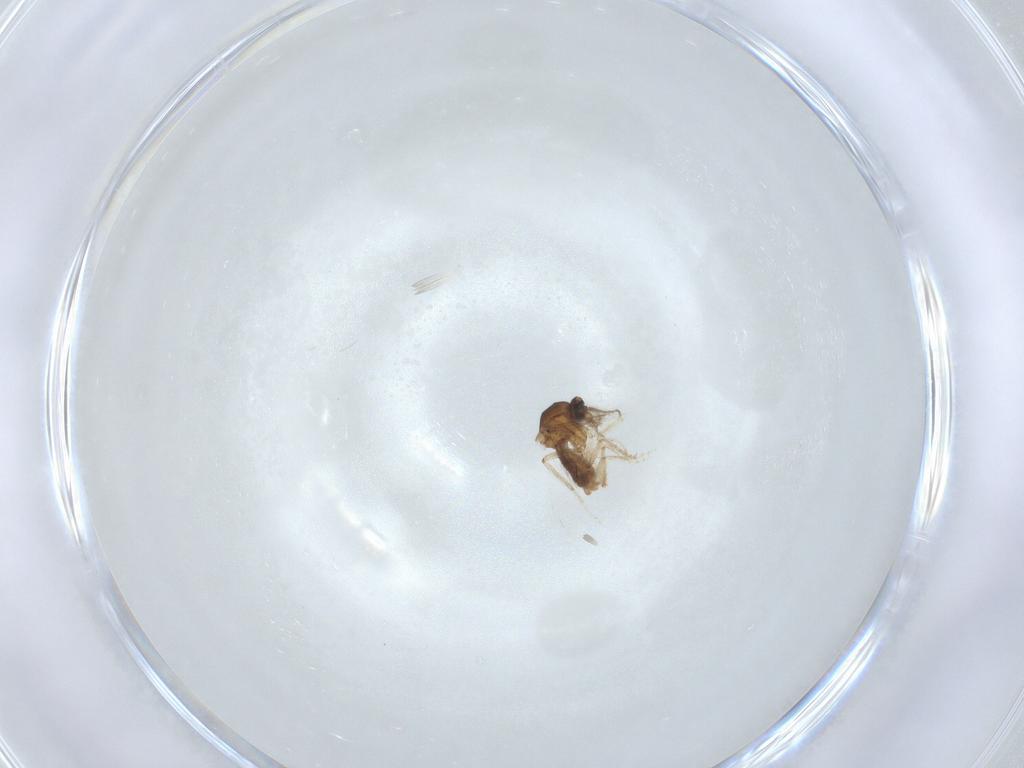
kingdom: Animalia
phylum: Arthropoda
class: Insecta
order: Diptera
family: Ceratopogonidae
